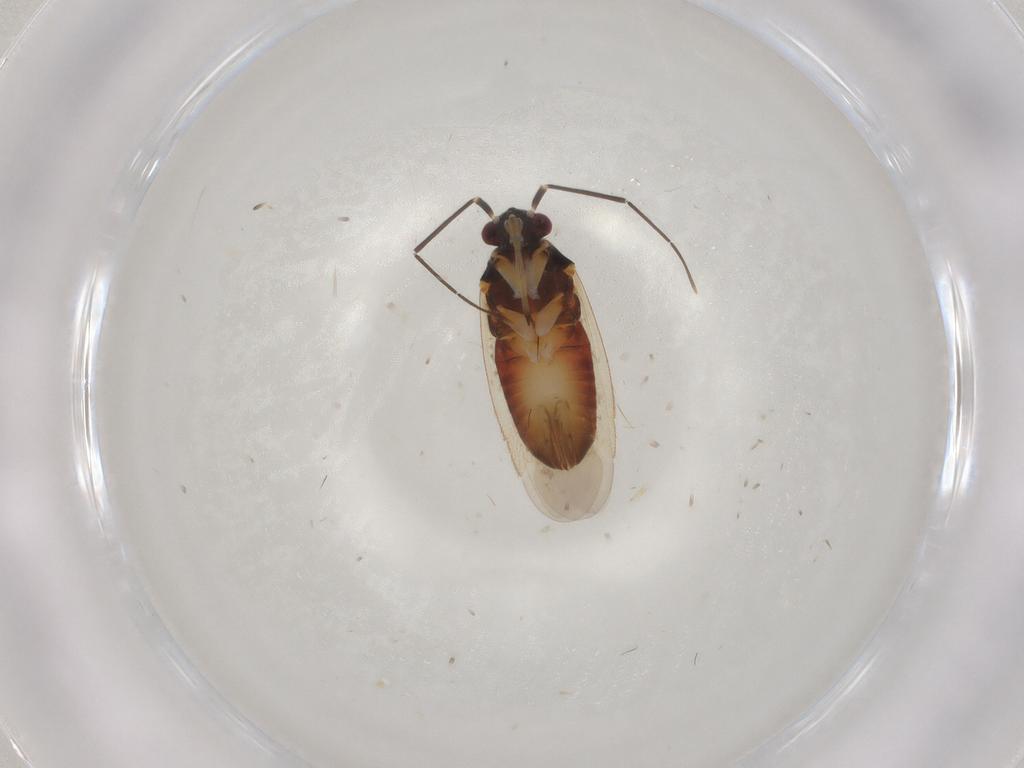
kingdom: Animalia
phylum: Arthropoda
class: Insecta
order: Hemiptera
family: Miridae
